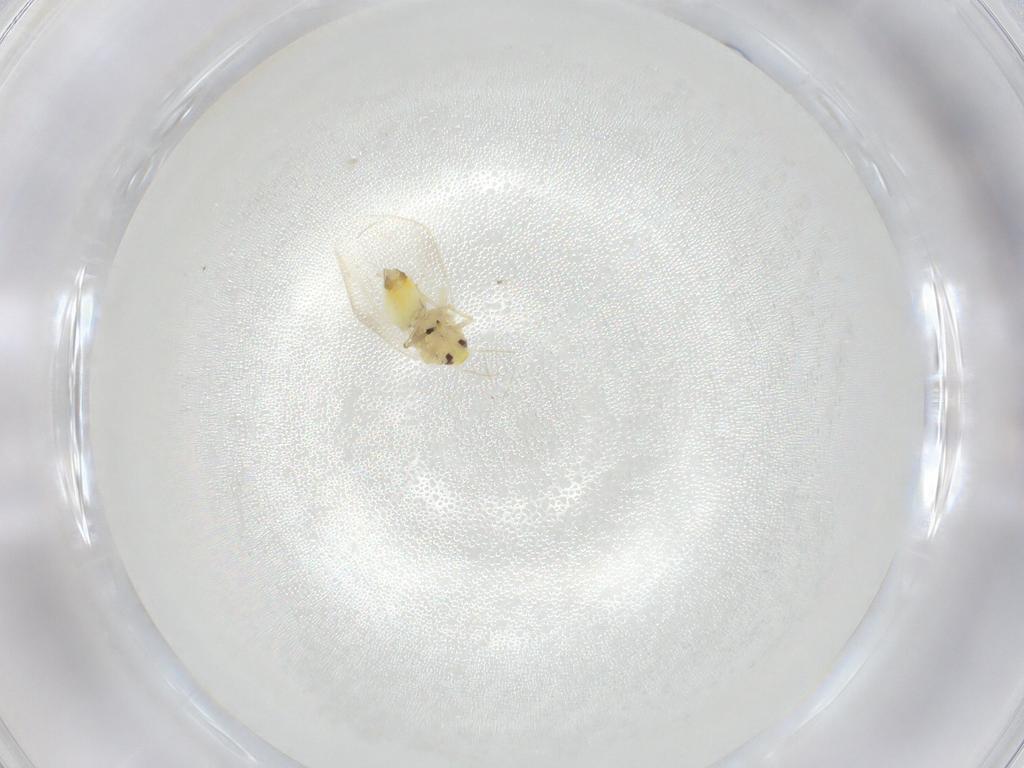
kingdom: Animalia
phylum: Arthropoda
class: Insecta
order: Hemiptera
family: Aleyrodidae
